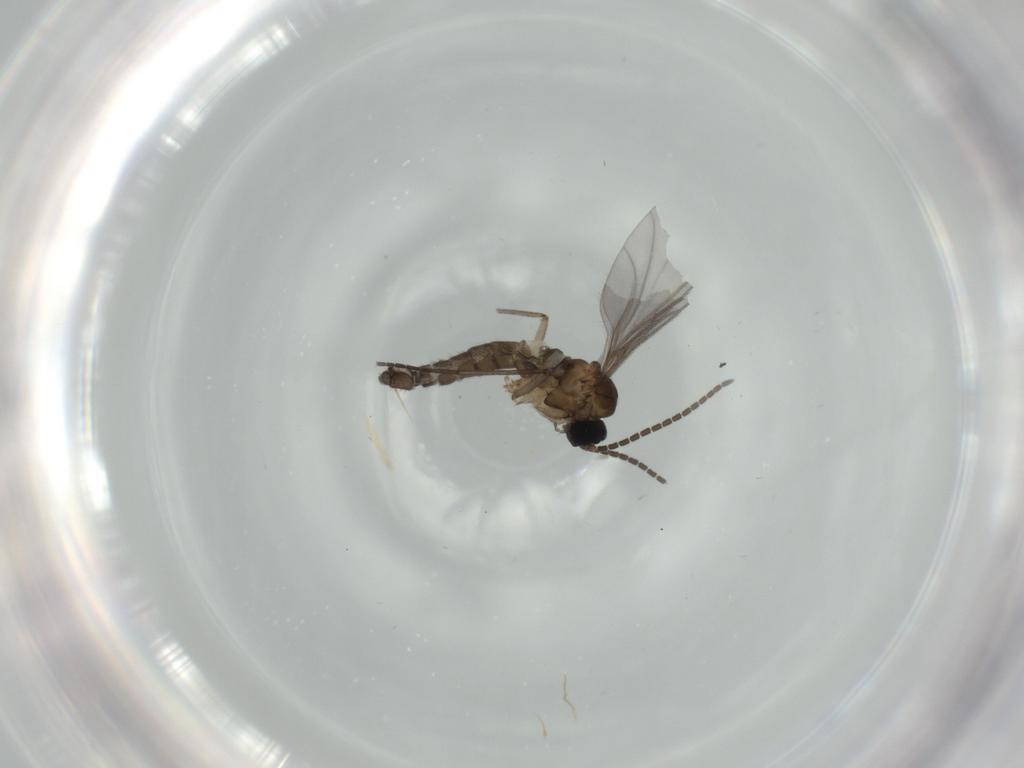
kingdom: Animalia
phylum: Arthropoda
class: Insecta
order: Diptera
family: Sciaridae
